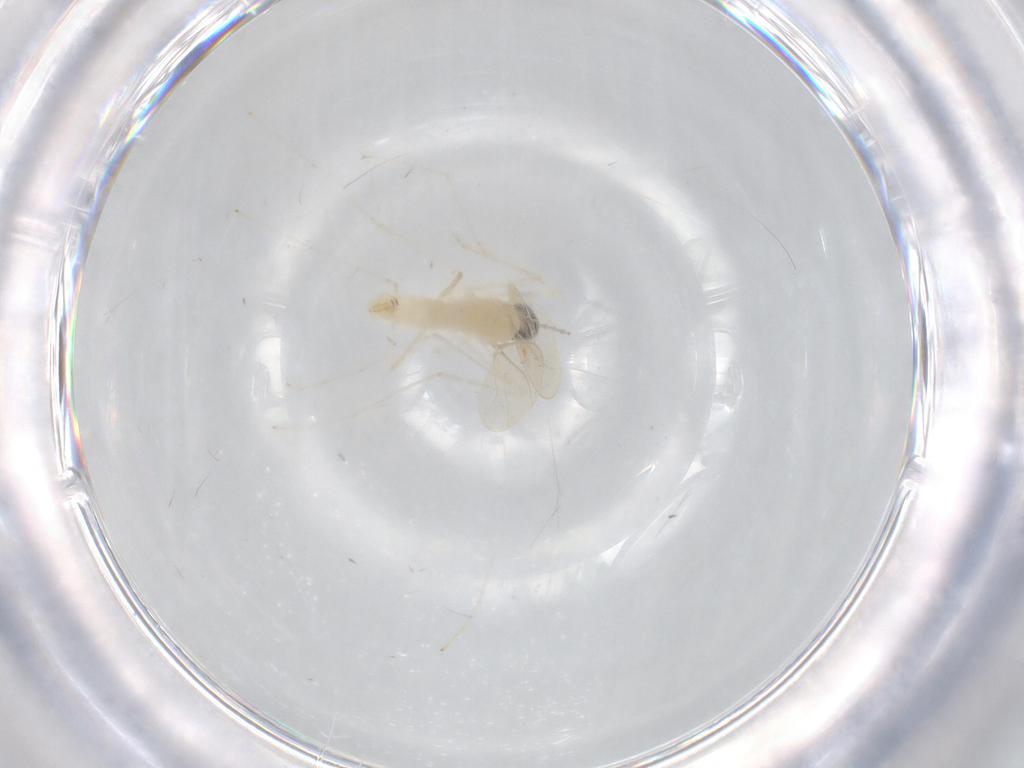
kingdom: Animalia
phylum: Arthropoda
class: Insecta
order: Diptera
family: Cecidomyiidae
